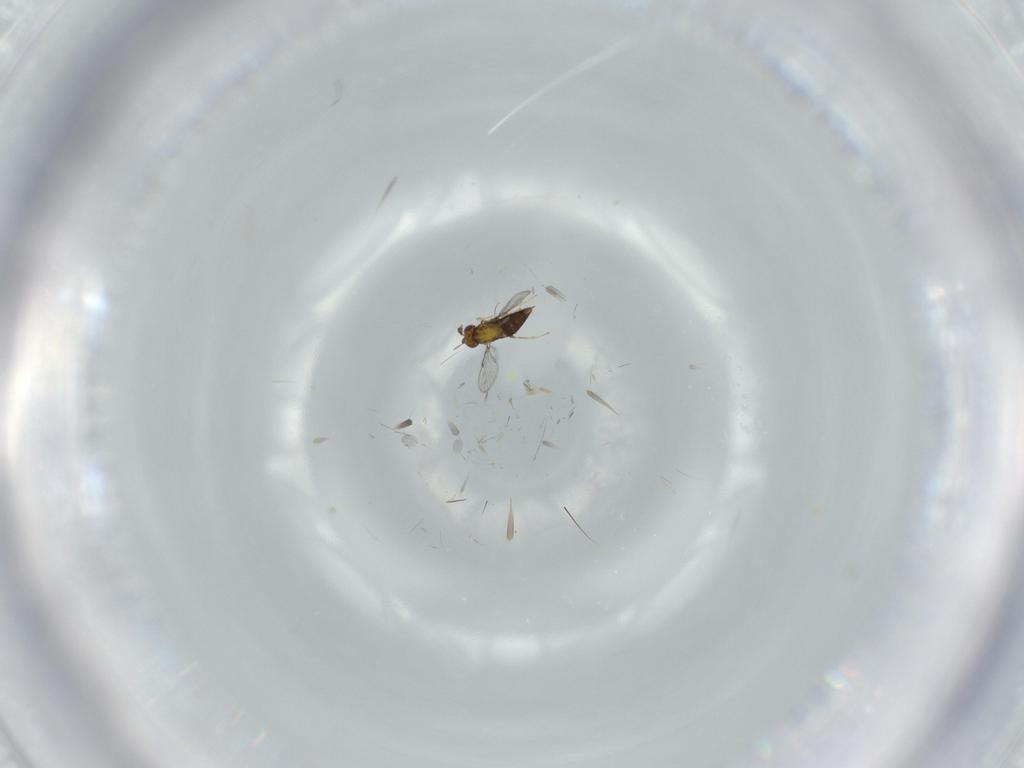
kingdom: Animalia
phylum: Arthropoda
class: Insecta
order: Hymenoptera
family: Trichogrammatidae
